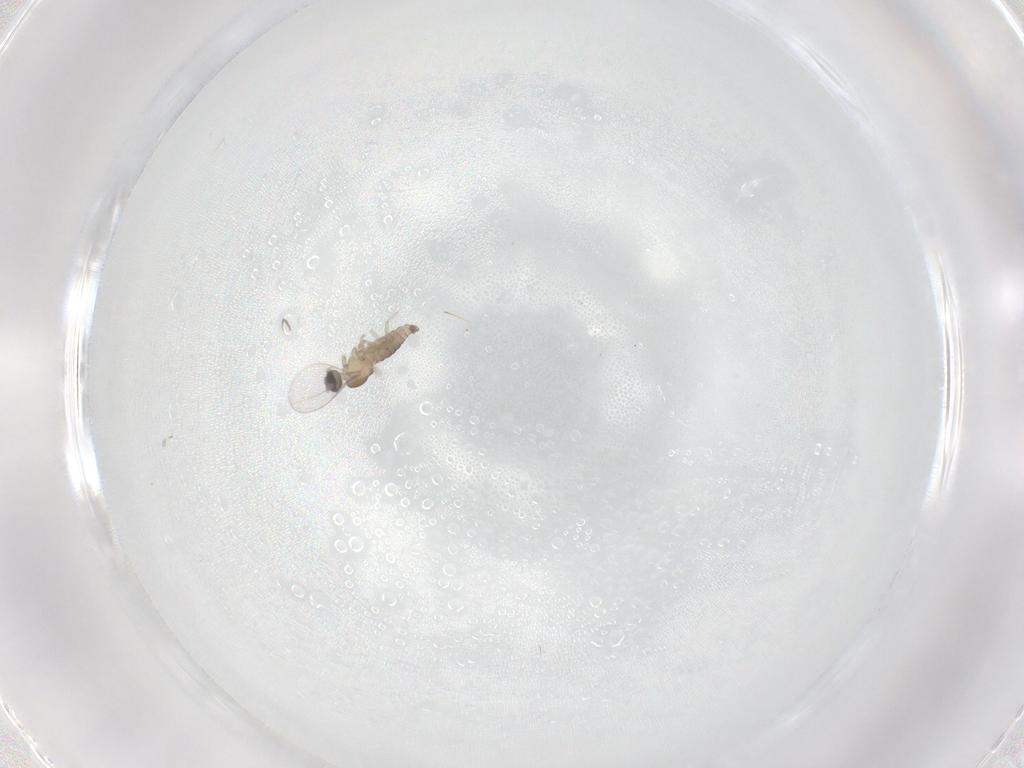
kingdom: Animalia
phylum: Arthropoda
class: Insecta
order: Diptera
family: Cecidomyiidae
